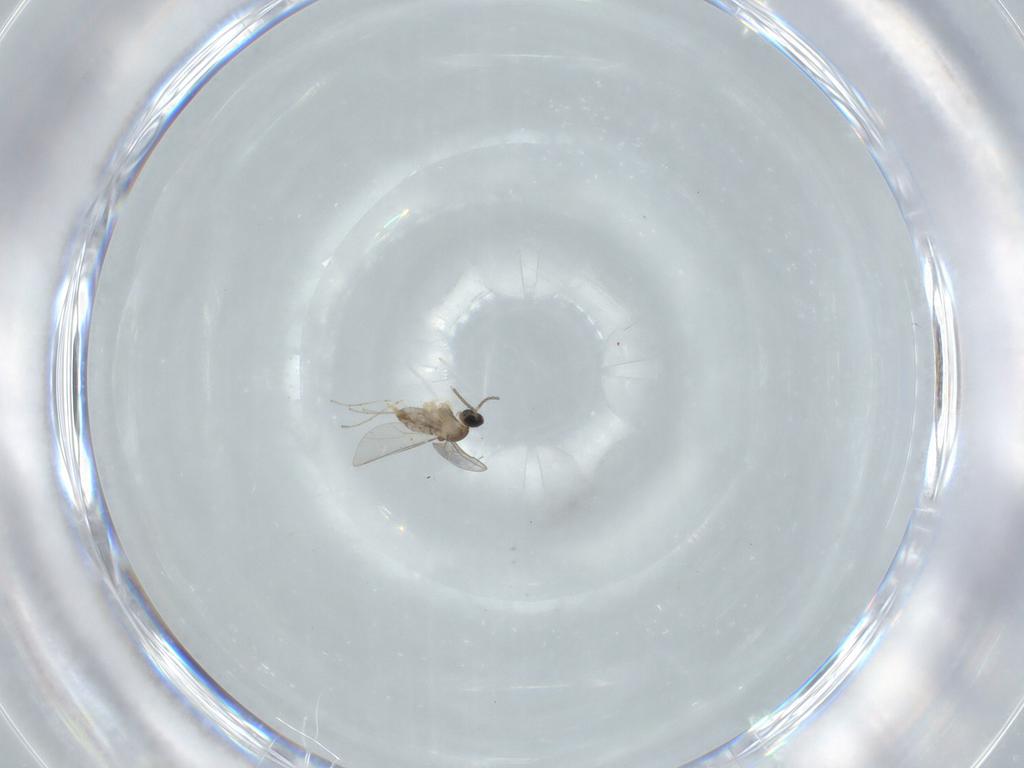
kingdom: Animalia
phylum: Arthropoda
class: Insecta
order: Diptera
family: Cecidomyiidae
